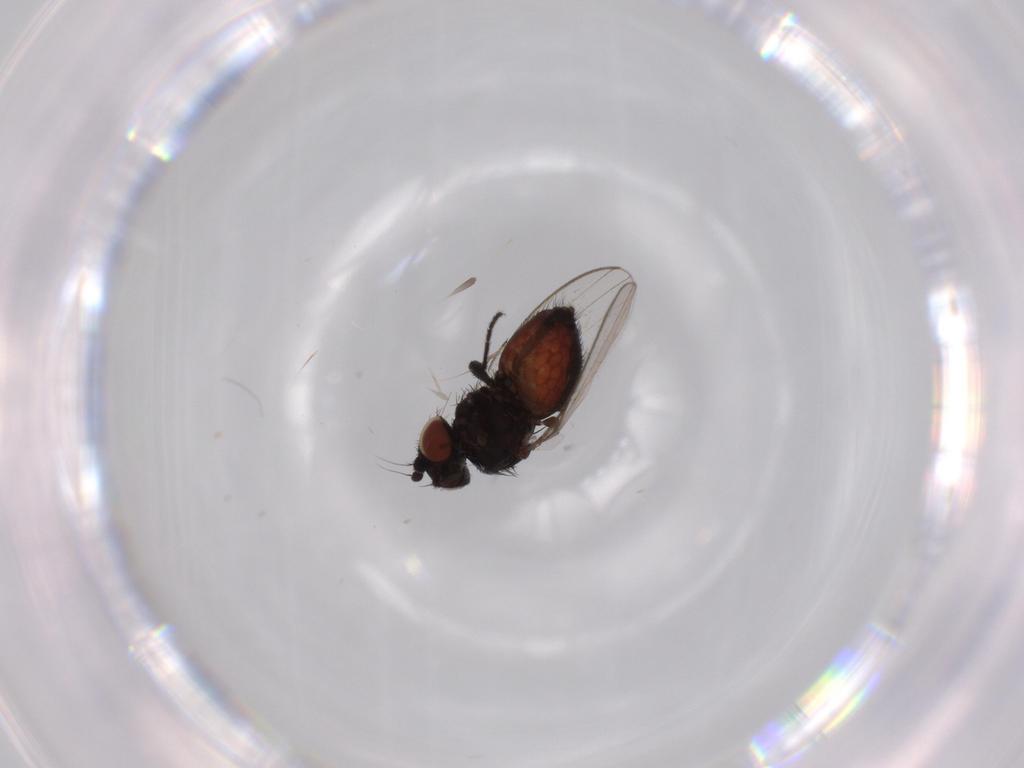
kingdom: Animalia
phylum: Arthropoda
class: Insecta
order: Diptera
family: Milichiidae
